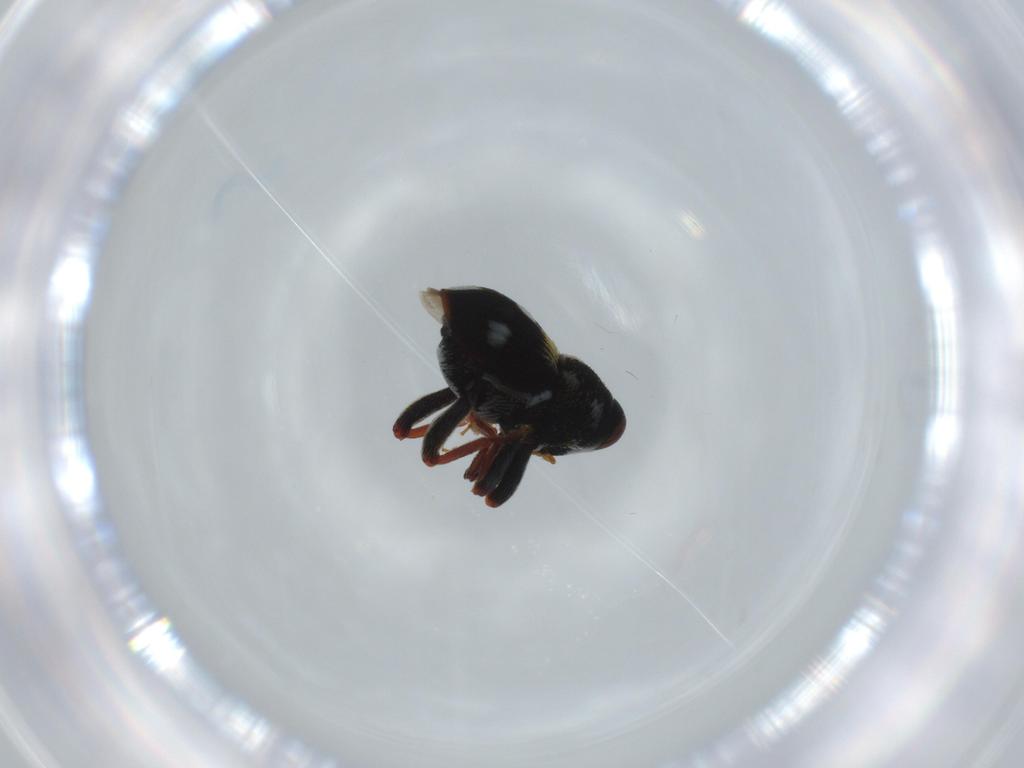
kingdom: Animalia
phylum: Arthropoda
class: Insecta
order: Coleoptera
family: Curculionidae
